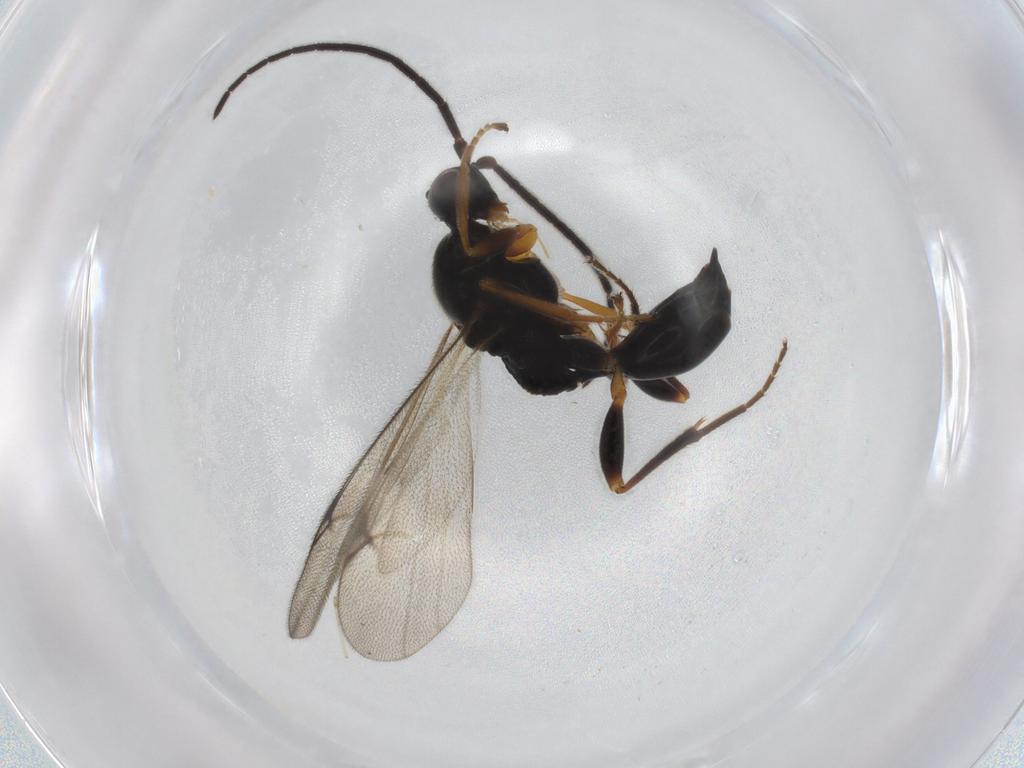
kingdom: Animalia
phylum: Arthropoda
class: Insecta
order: Hymenoptera
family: Proctotrupidae
